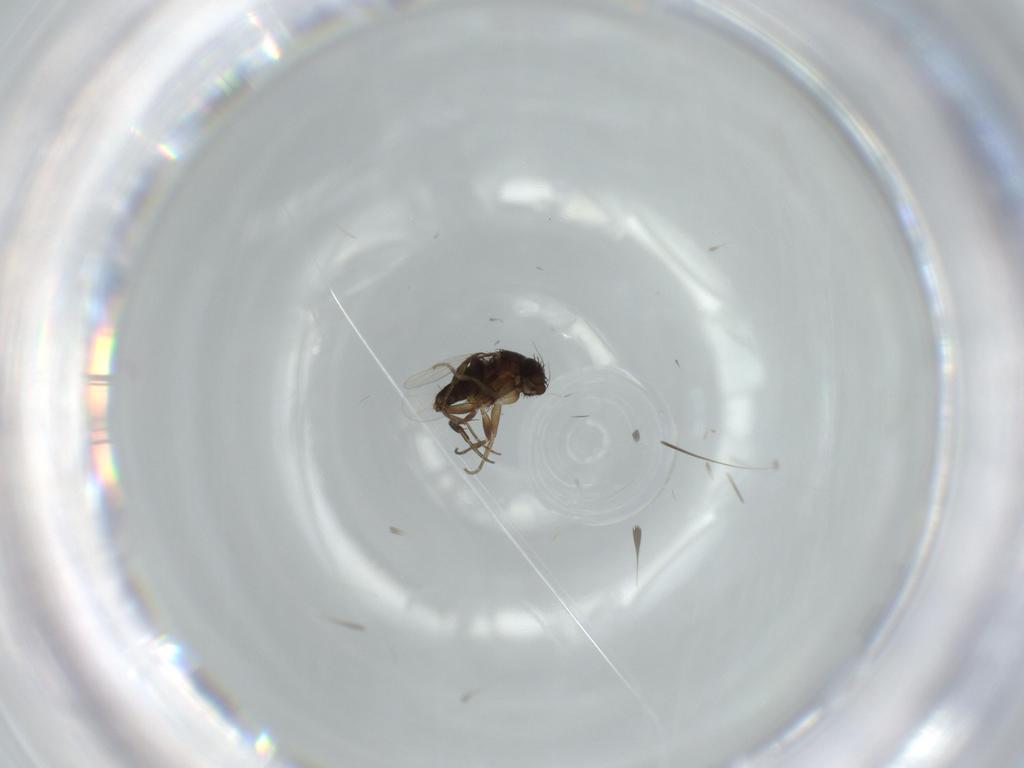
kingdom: Animalia
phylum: Arthropoda
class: Insecta
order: Diptera
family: Phoridae
